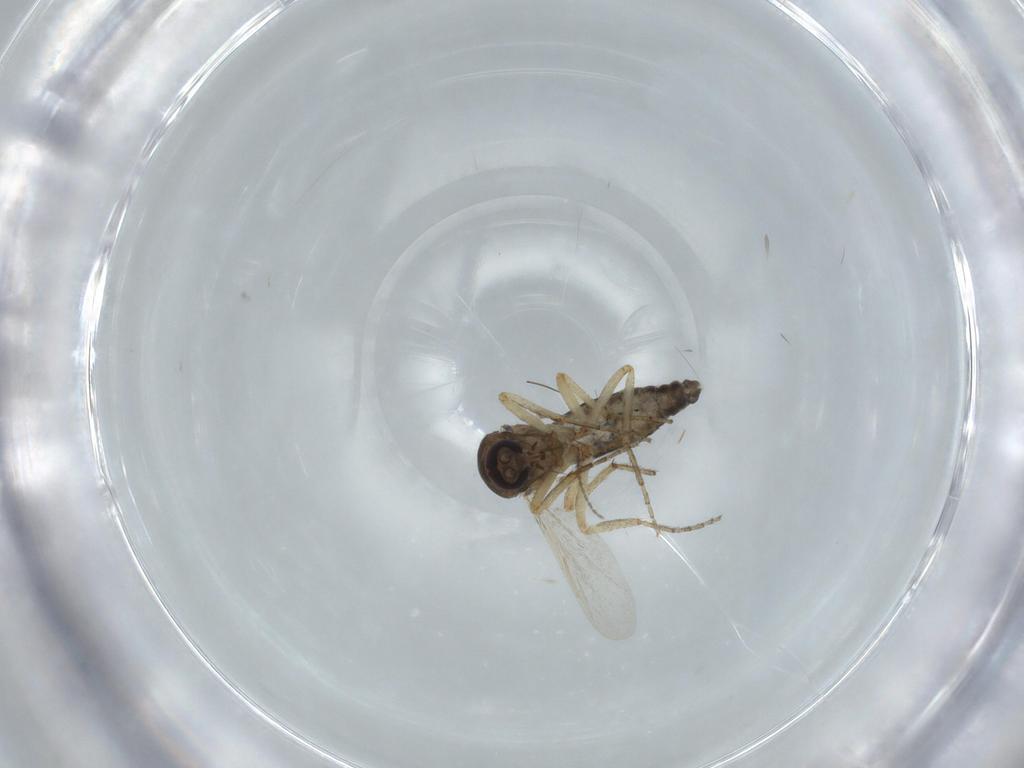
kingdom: Animalia
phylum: Arthropoda
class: Insecta
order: Diptera
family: Ceratopogonidae
